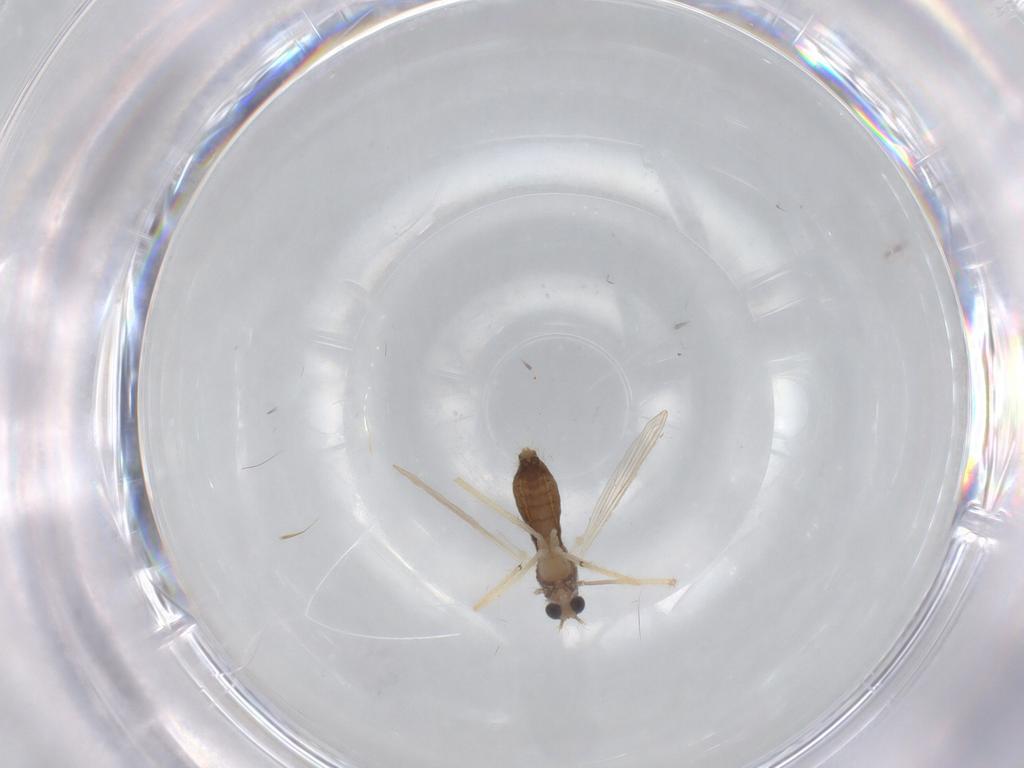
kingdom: Animalia
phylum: Arthropoda
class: Insecta
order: Diptera
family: Chironomidae
